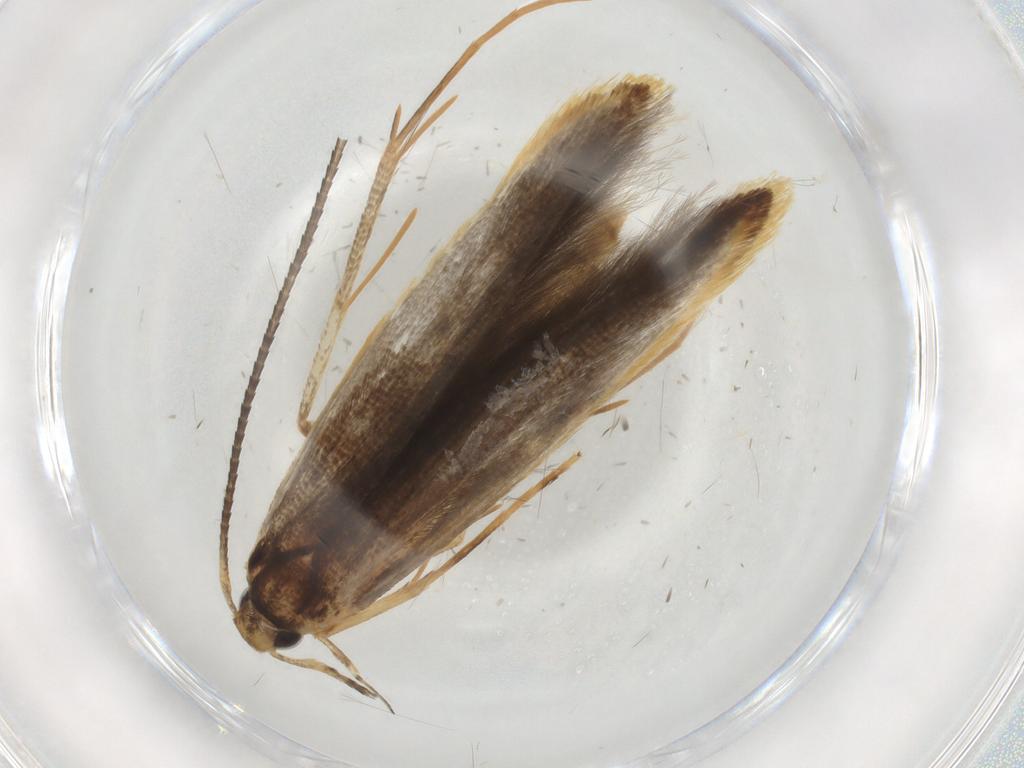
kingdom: Animalia
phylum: Arthropoda
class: Insecta
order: Lepidoptera
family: Pterolonchidae
